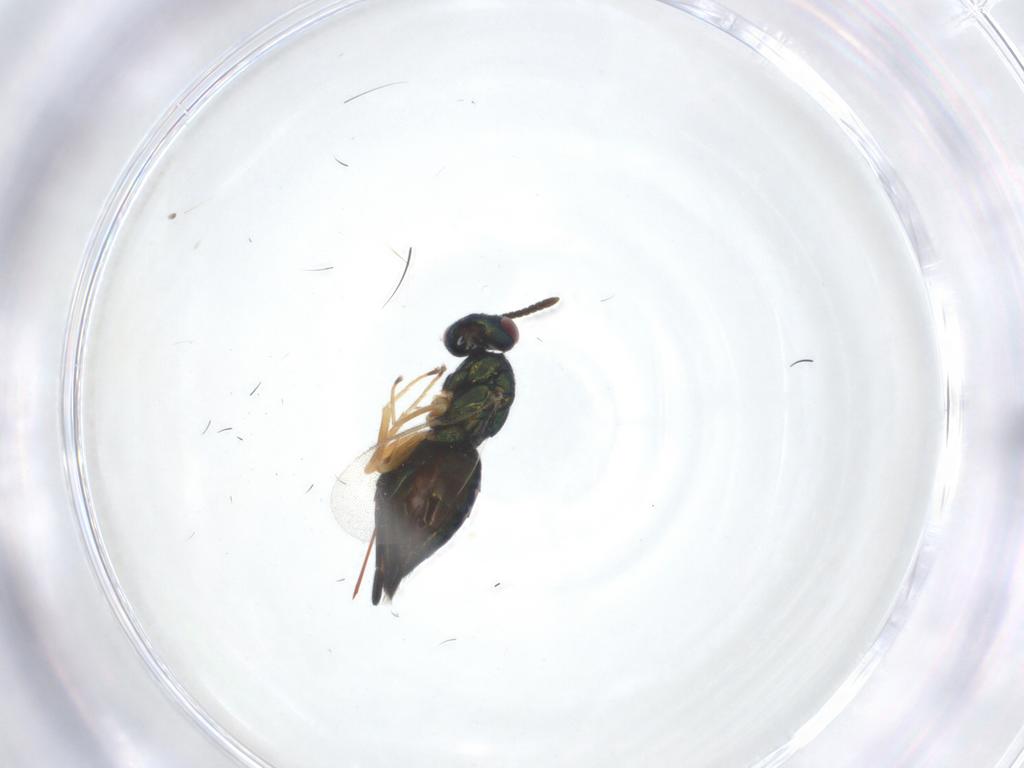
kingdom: Animalia
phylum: Arthropoda
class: Insecta
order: Hymenoptera
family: Pteromalidae
